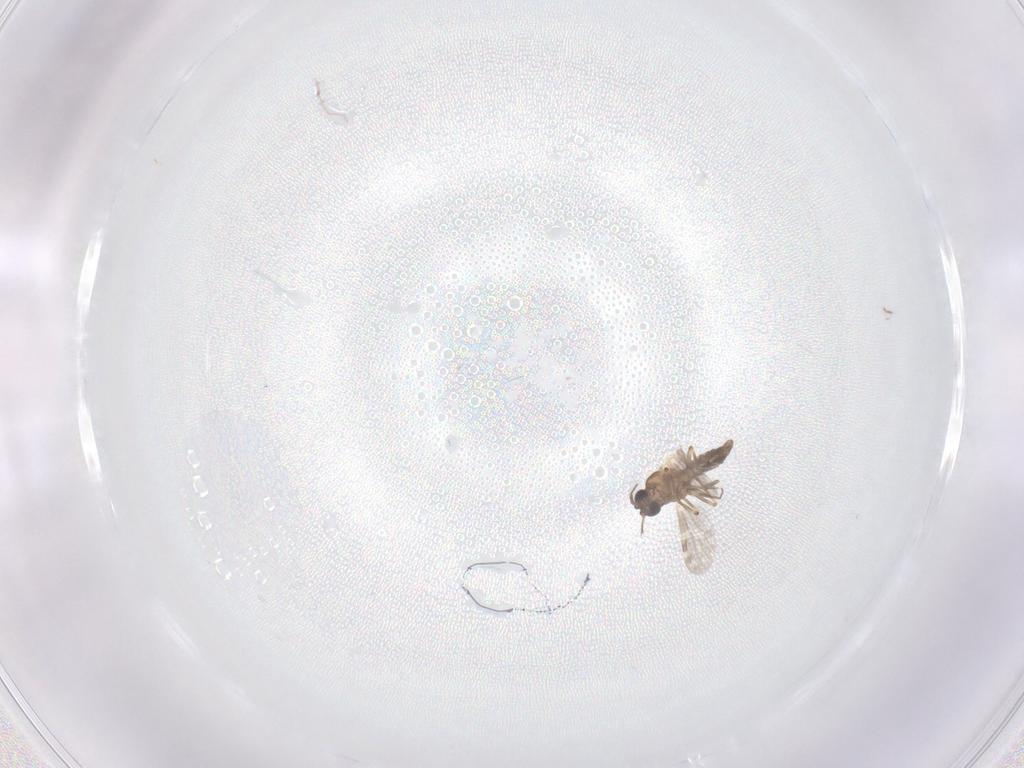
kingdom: Animalia
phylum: Arthropoda
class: Insecta
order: Diptera
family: Ceratopogonidae
